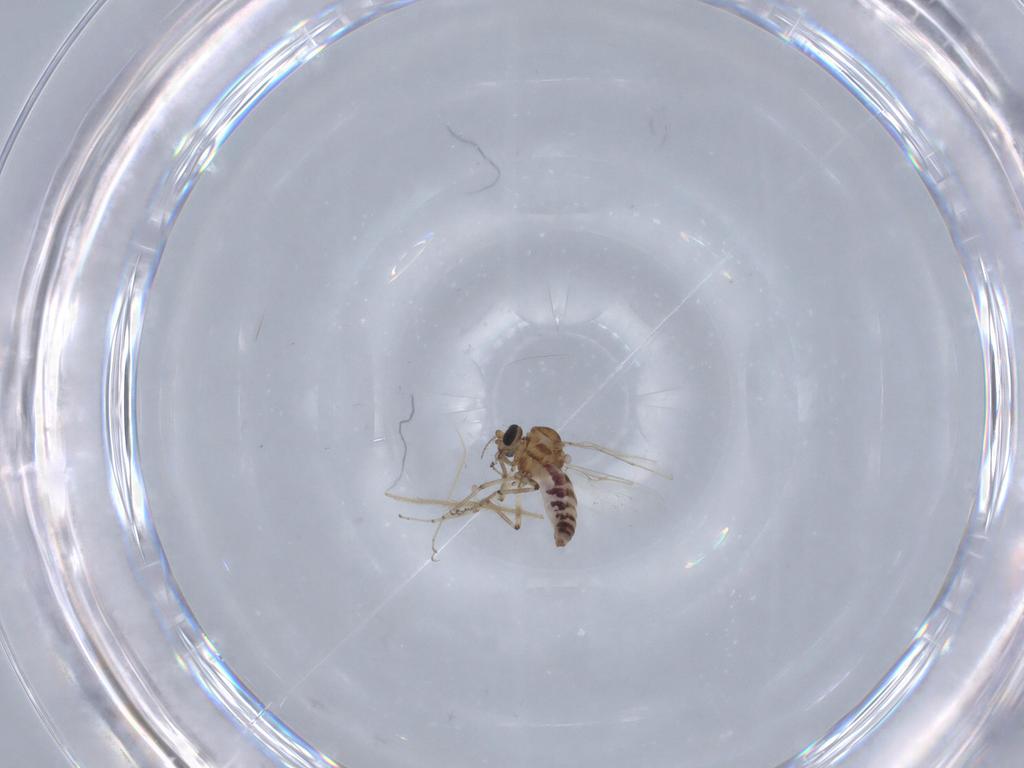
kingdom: Animalia
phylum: Arthropoda
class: Insecta
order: Diptera
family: Ceratopogonidae
